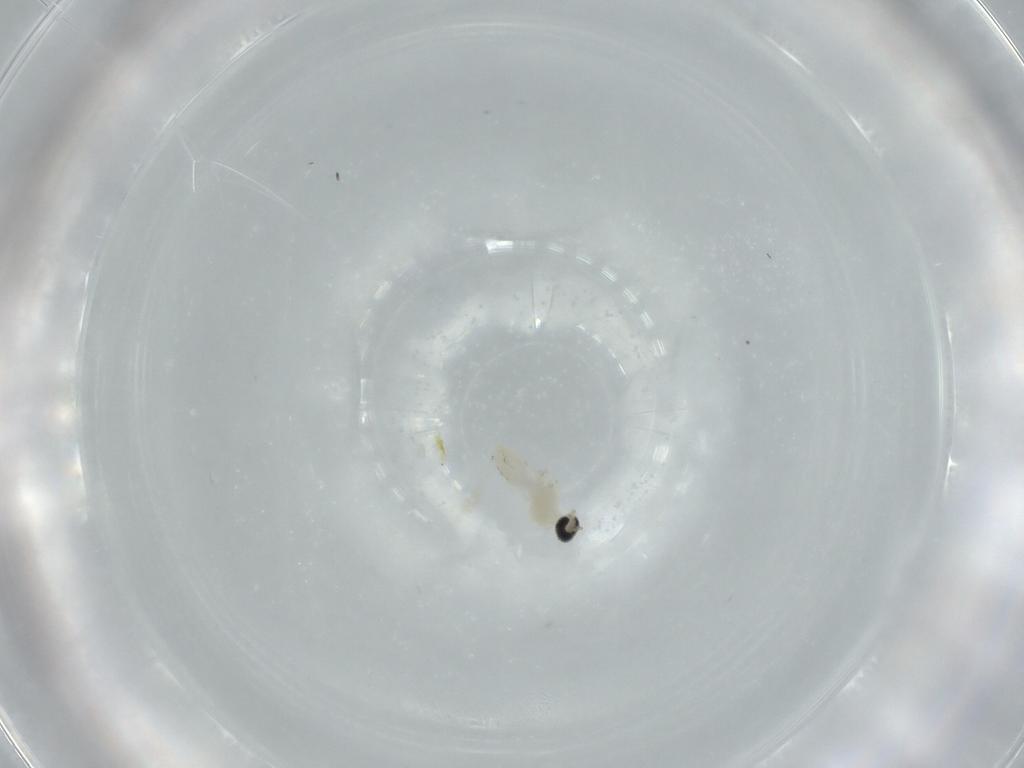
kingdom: Animalia
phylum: Arthropoda
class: Insecta
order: Diptera
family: Cecidomyiidae
